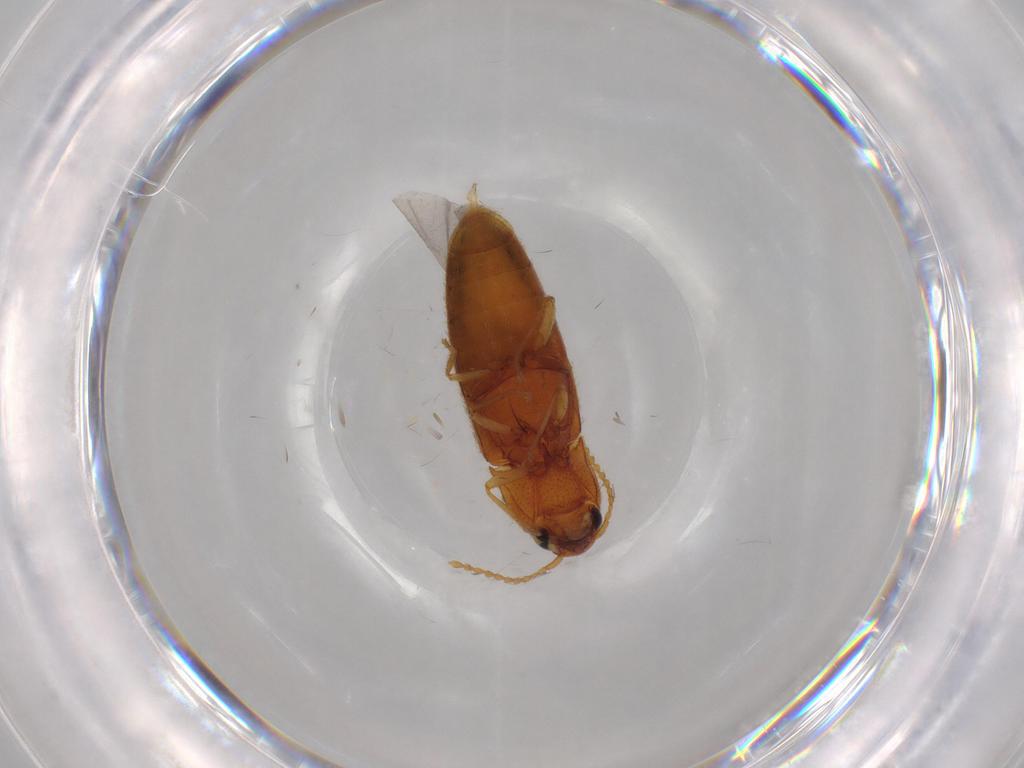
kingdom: Animalia
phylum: Arthropoda
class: Insecta
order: Coleoptera
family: Elateridae
